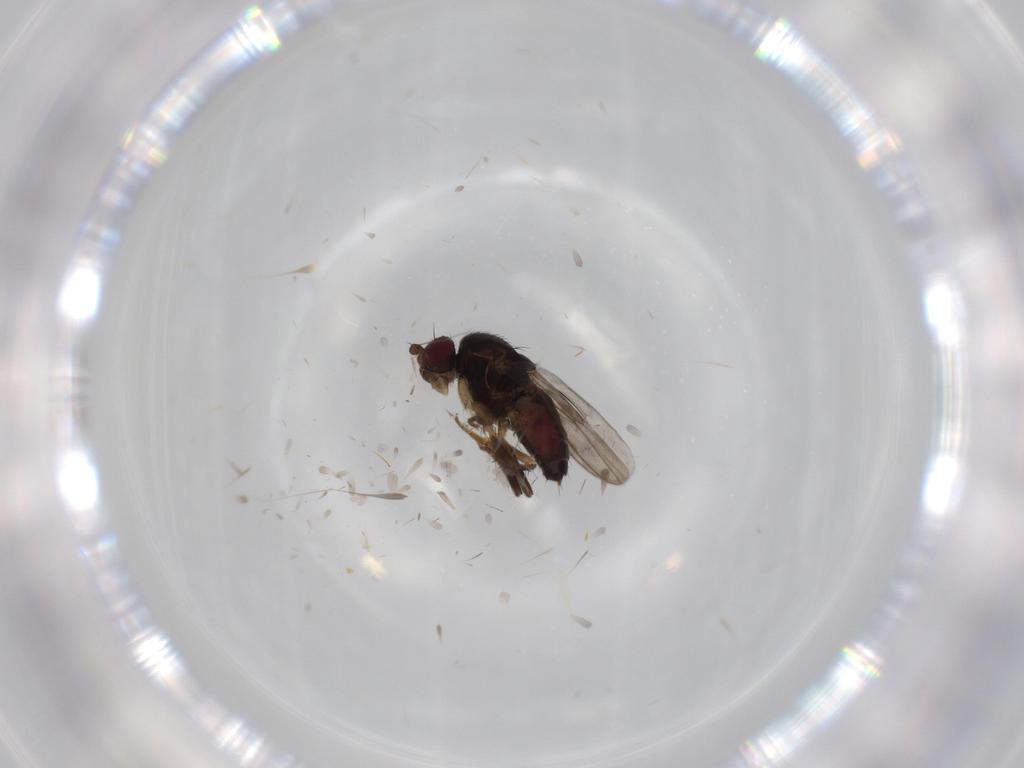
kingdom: Animalia
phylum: Arthropoda
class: Insecta
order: Diptera
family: Sphaeroceridae
